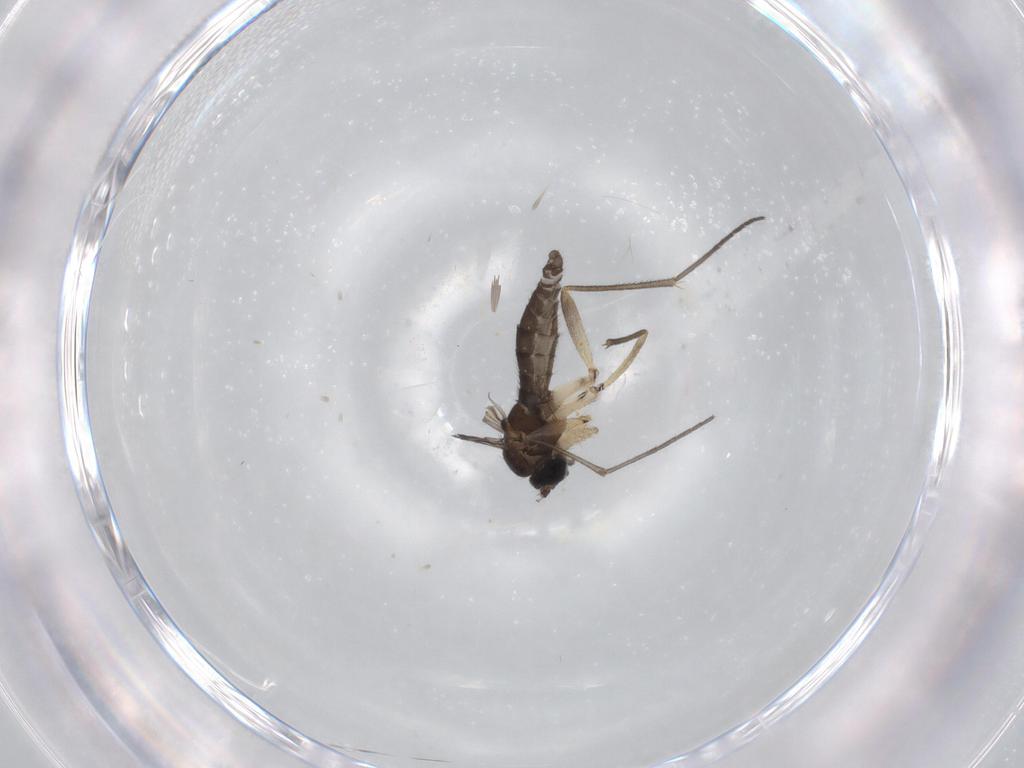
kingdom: Animalia
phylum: Arthropoda
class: Insecta
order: Diptera
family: Sciaridae
